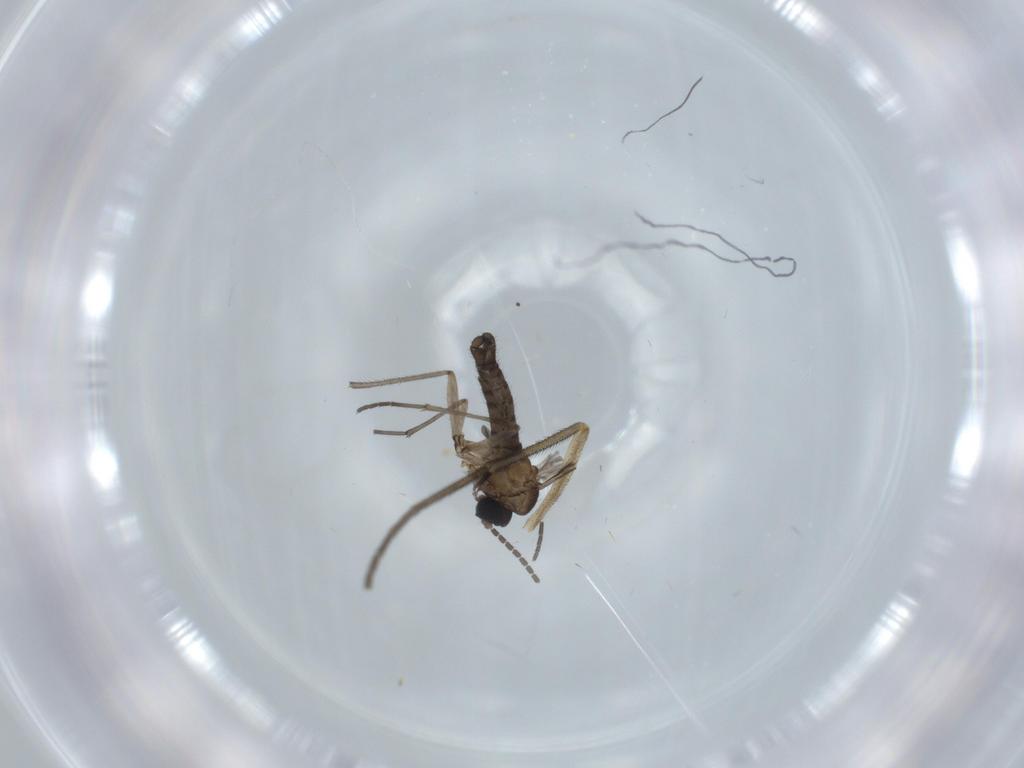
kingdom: Animalia
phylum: Arthropoda
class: Insecta
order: Diptera
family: Sciaridae
